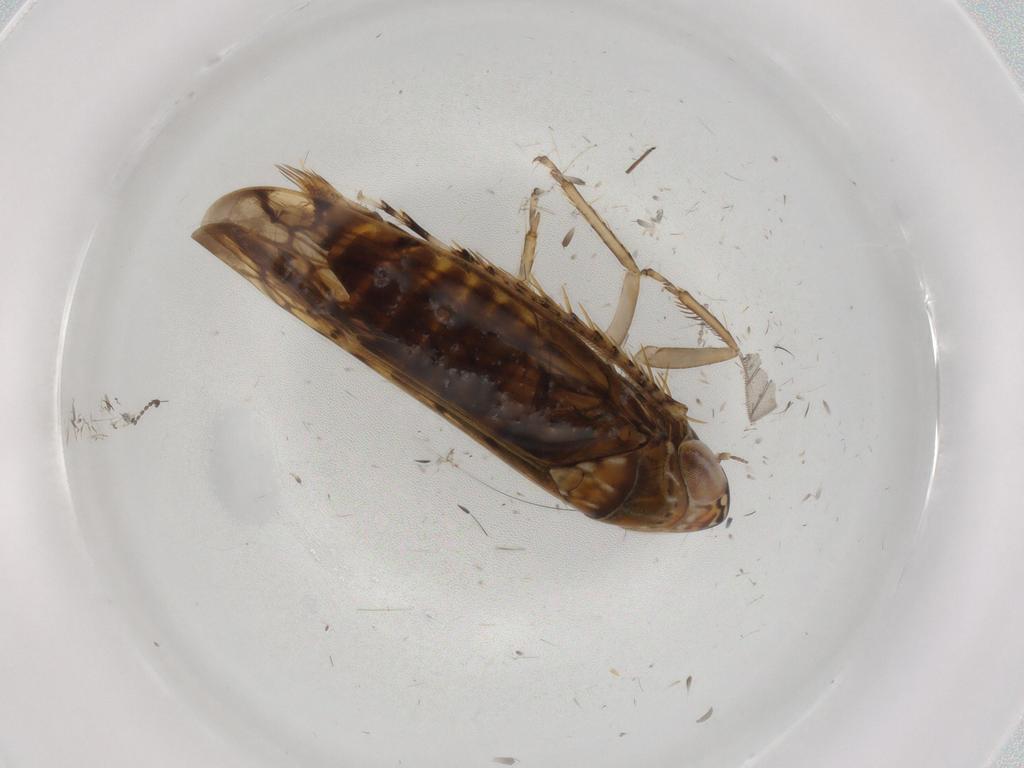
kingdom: Animalia
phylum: Arthropoda
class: Insecta
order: Hemiptera
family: Cicadellidae
